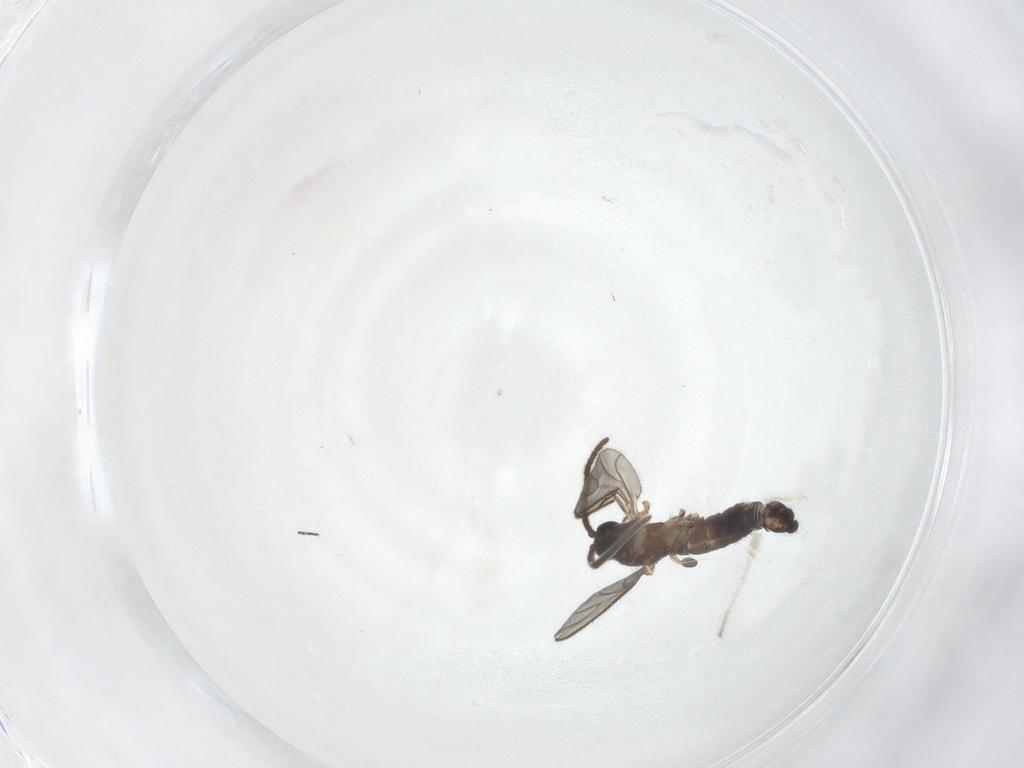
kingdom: Animalia
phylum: Arthropoda
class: Insecta
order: Diptera
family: Sciaridae
